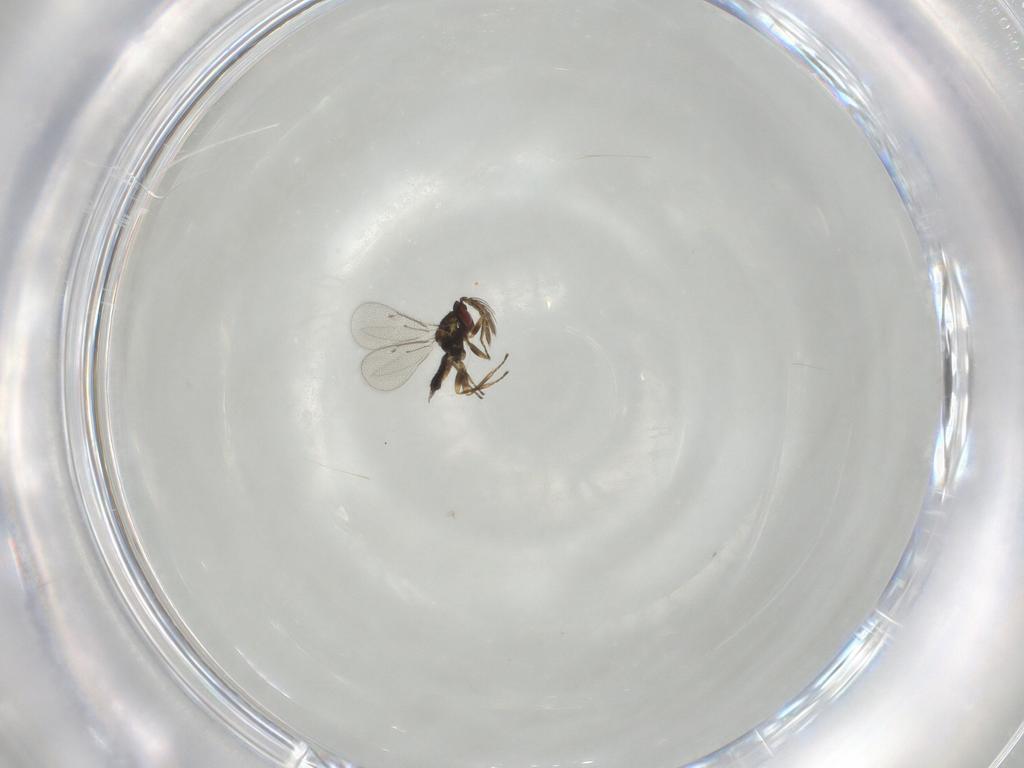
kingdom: Animalia
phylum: Arthropoda
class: Insecta
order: Hymenoptera
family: Eulophidae
